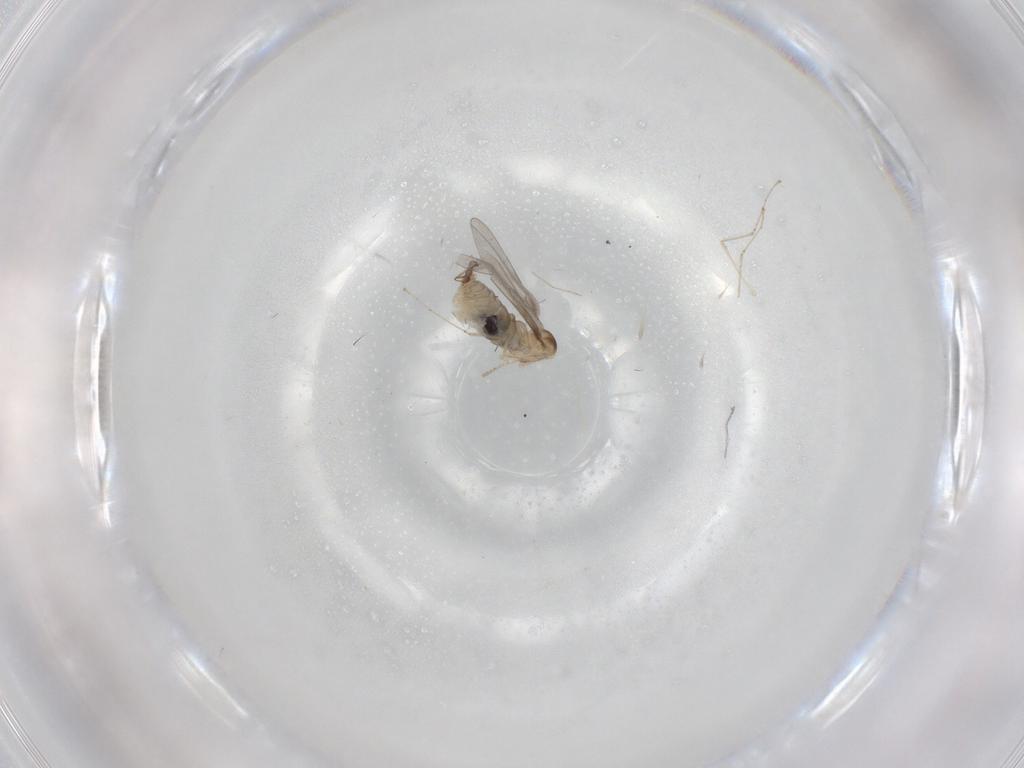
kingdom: Animalia
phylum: Arthropoda
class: Insecta
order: Diptera
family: Cecidomyiidae
